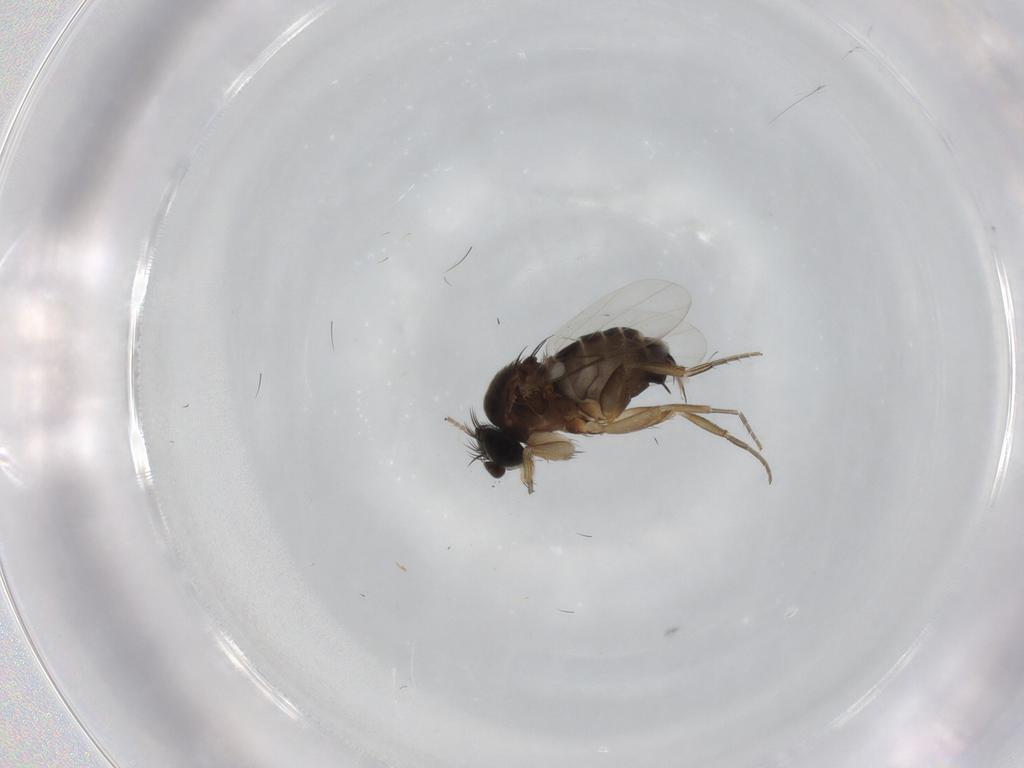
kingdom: Animalia
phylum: Arthropoda
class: Insecta
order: Diptera
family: Phoridae
